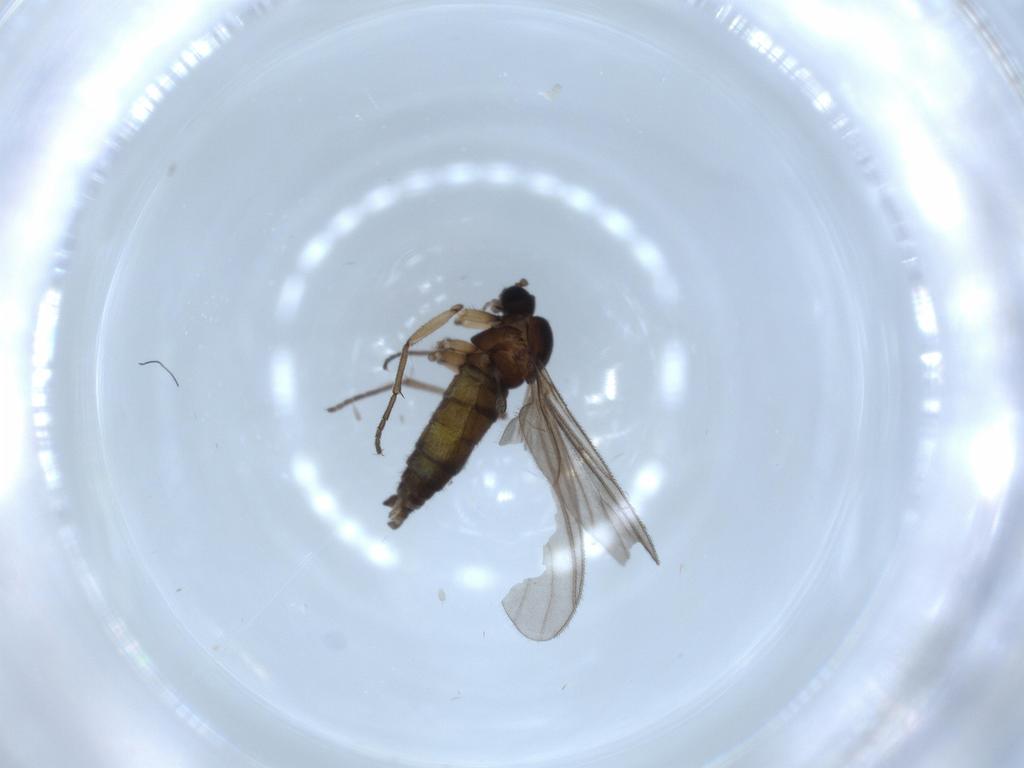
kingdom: Animalia
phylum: Arthropoda
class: Insecta
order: Diptera
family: Sciaridae
